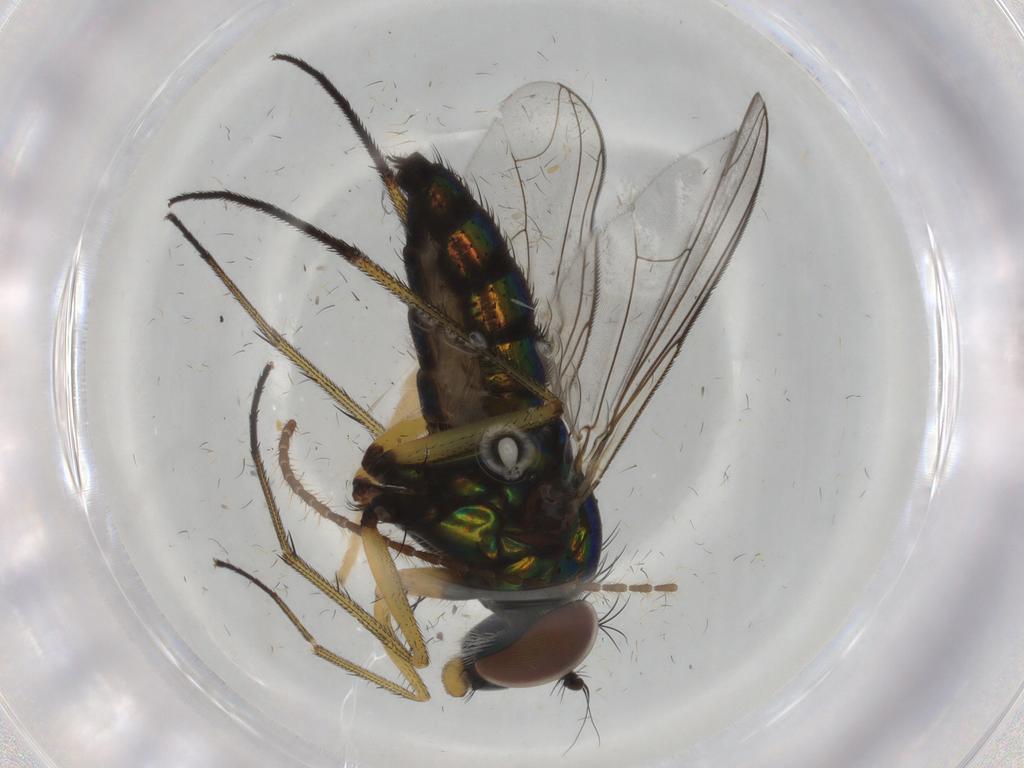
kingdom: Animalia
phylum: Arthropoda
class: Insecta
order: Diptera
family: Dolichopodidae
